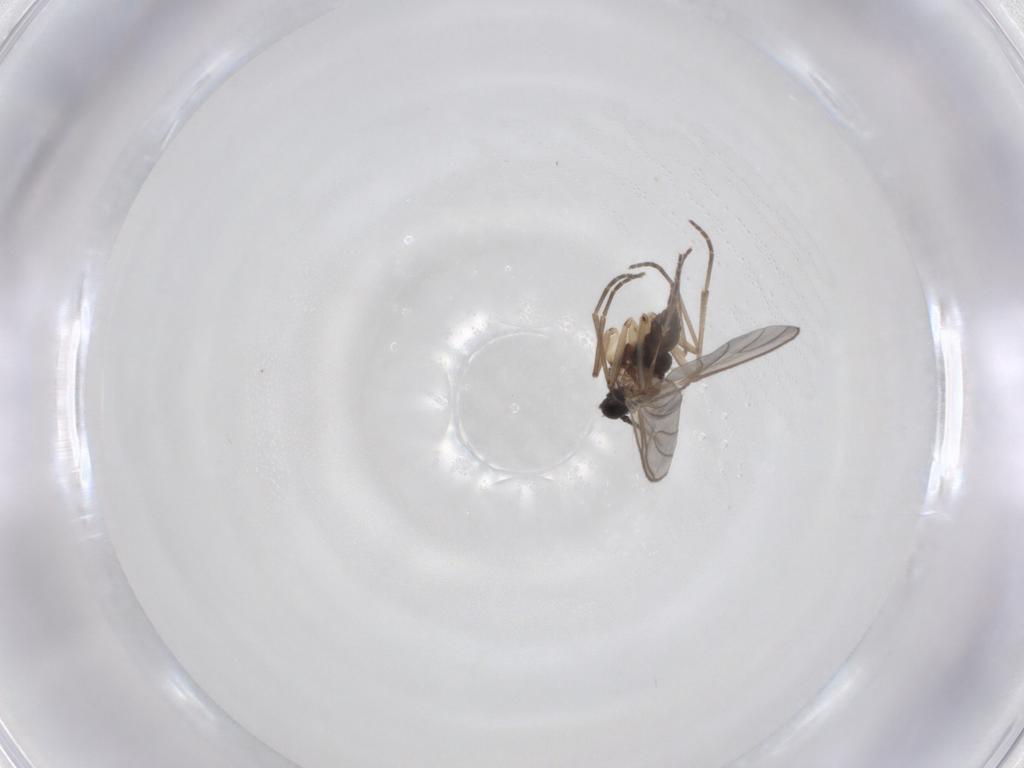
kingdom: Animalia
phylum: Arthropoda
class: Insecta
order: Diptera
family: Sciaridae
